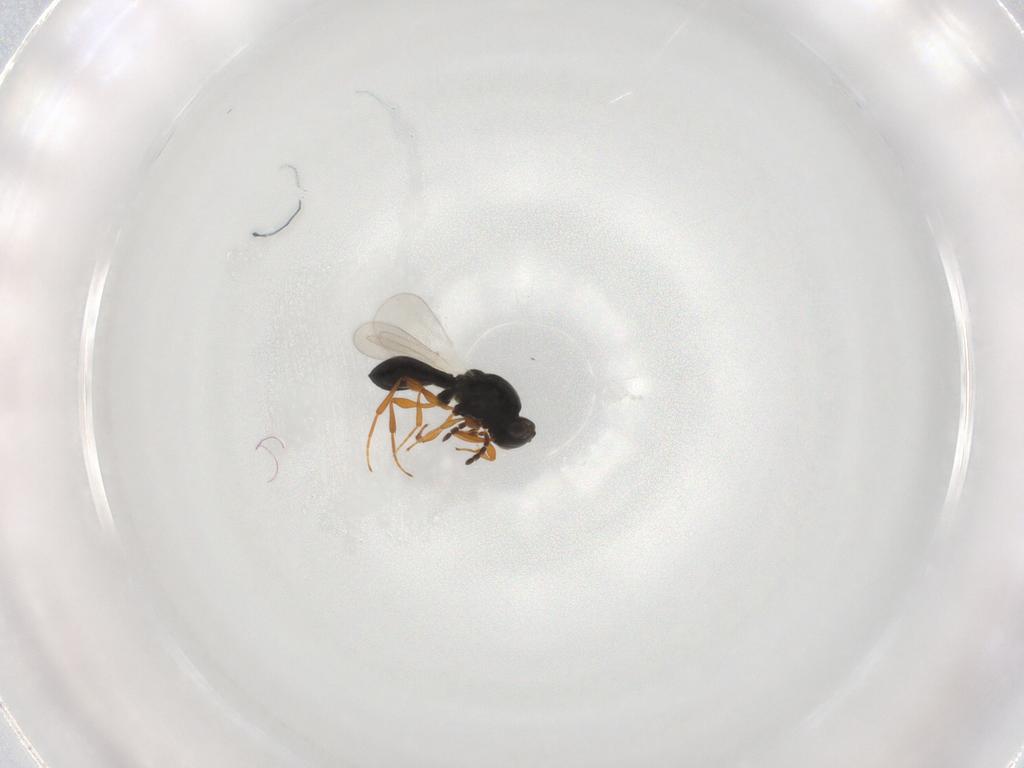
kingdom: Animalia
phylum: Arthropoda
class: Insecta
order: Hymenoptera
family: Platygastridae
